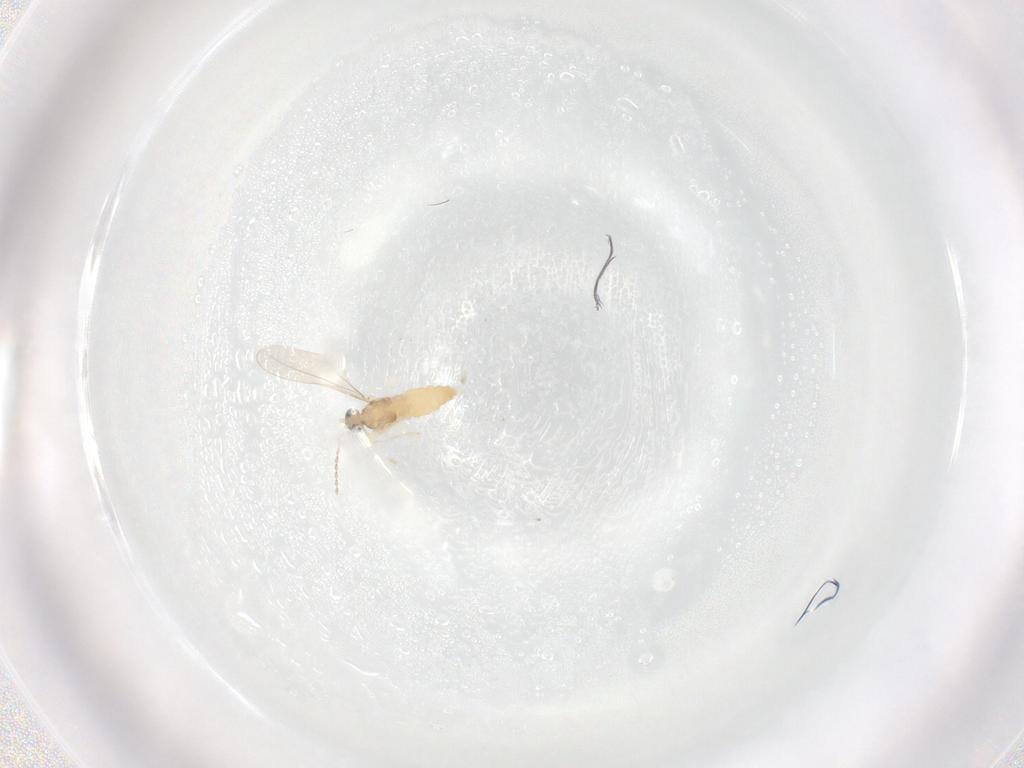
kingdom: Animalia
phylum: Arthropoda
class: Insecta
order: Diptera
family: Cecidomyiidae
